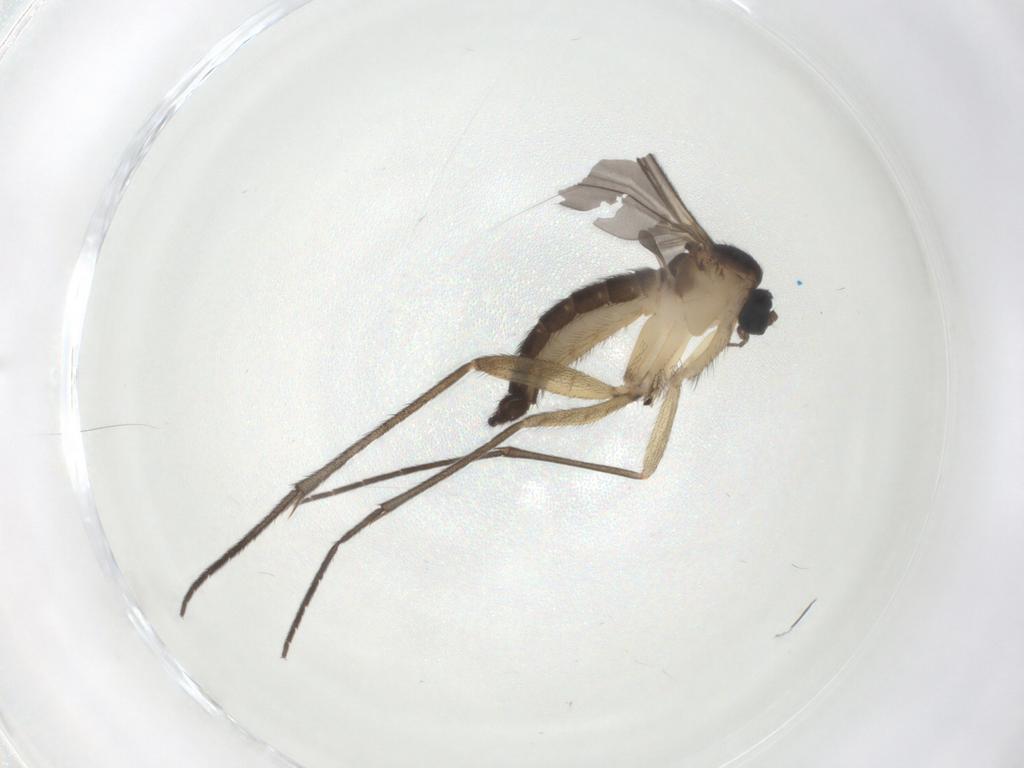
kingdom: Animalia
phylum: Arthropoda
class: Insecta
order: Diptera
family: Sciaridae
